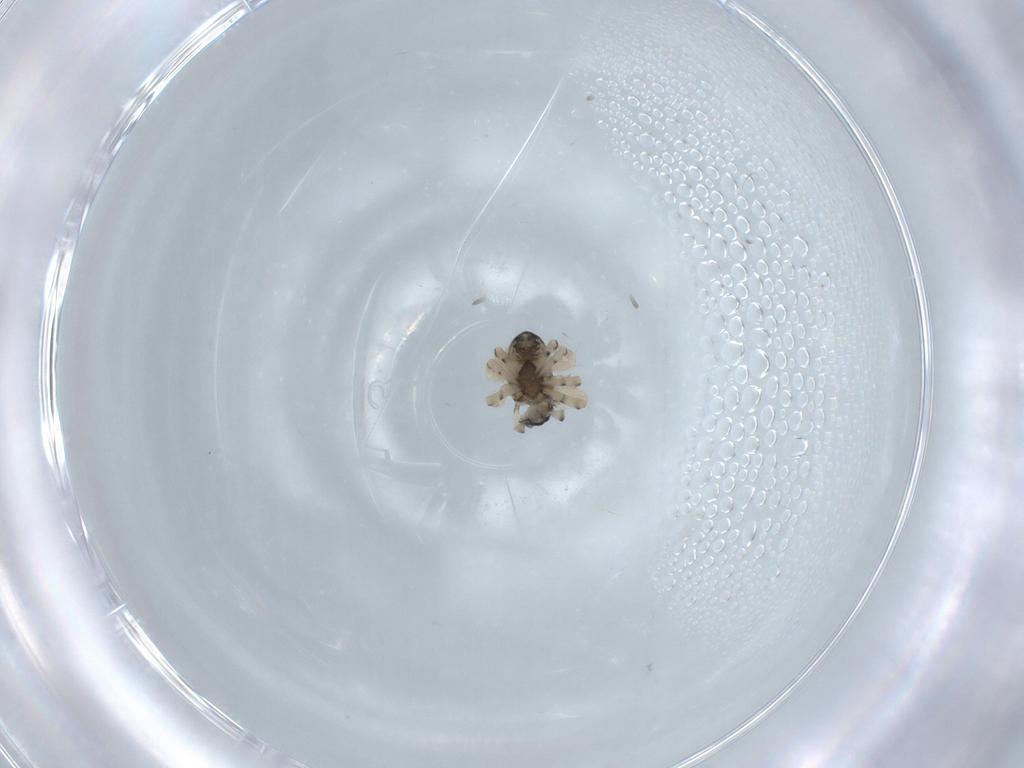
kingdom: Animalia
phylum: Arthropoda
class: Arachnida
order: Araneae
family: Theridiidae
